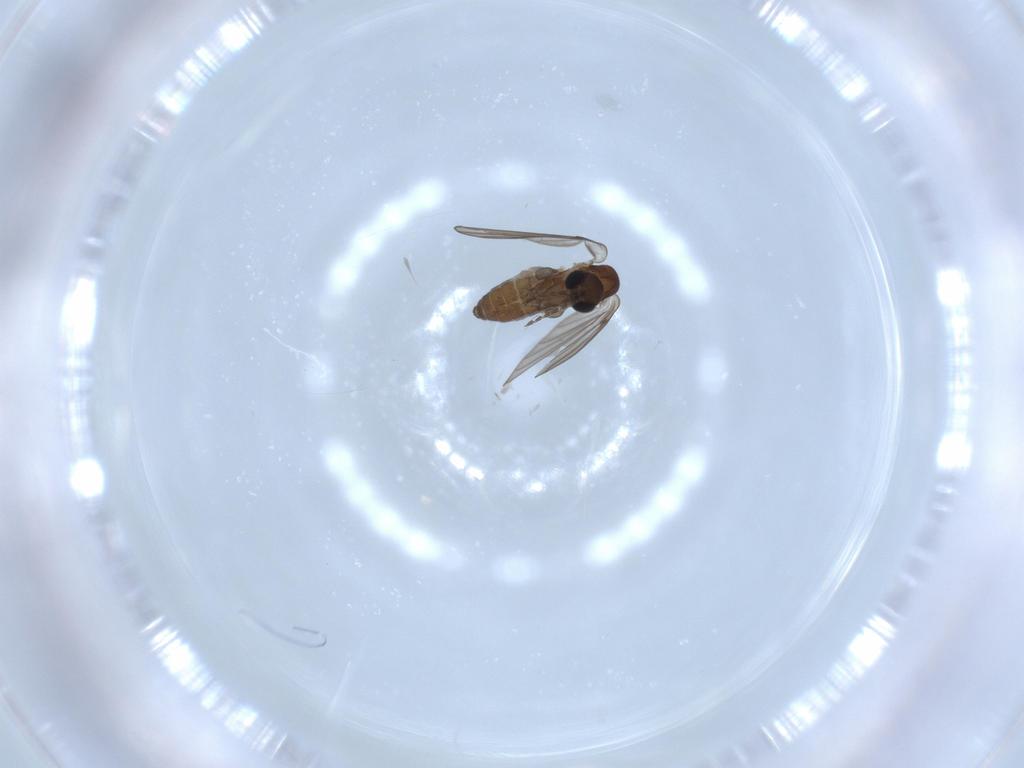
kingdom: Animalia
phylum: Arthropoda
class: Insecta
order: Diptera
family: Psychodidae
